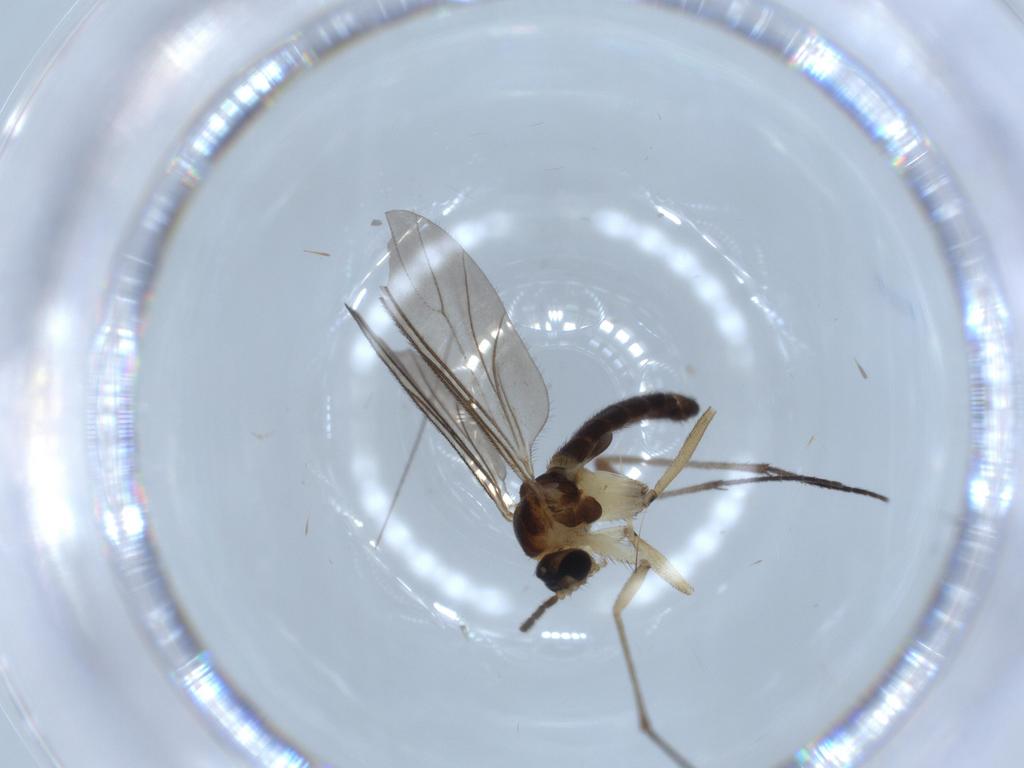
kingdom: Animalia
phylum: Arthropoda
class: Insecta
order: Diptera
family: Sciaridae
